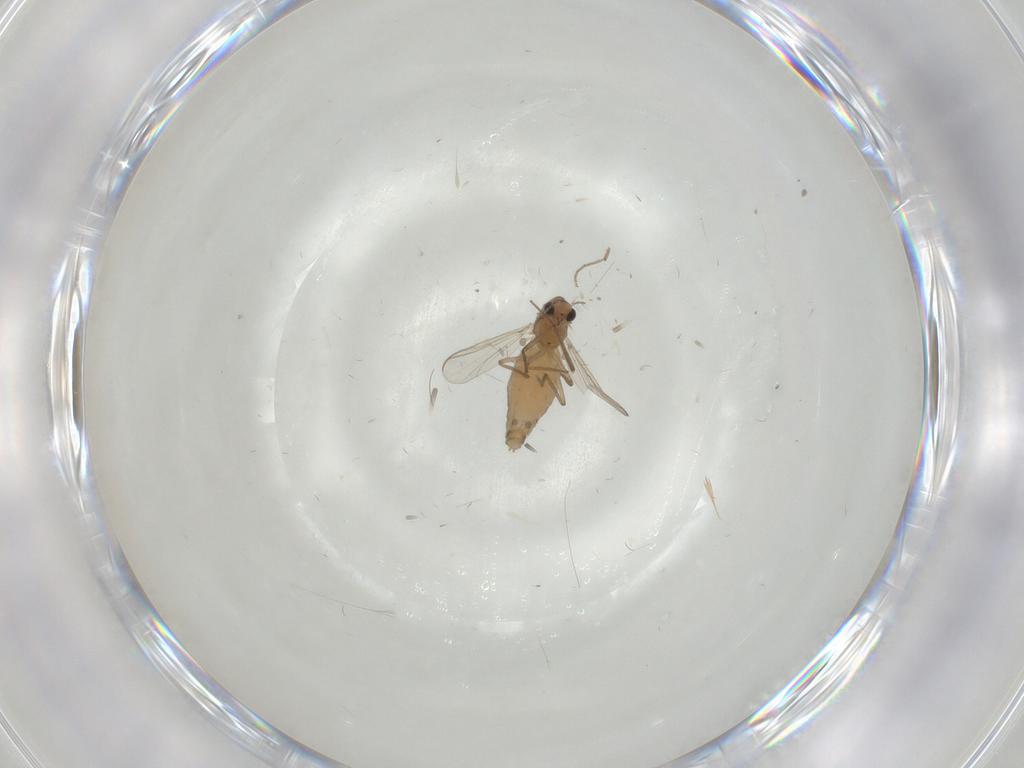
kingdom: Animalia
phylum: Arthropoda
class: Insecta
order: Diptera
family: Chironomidae
